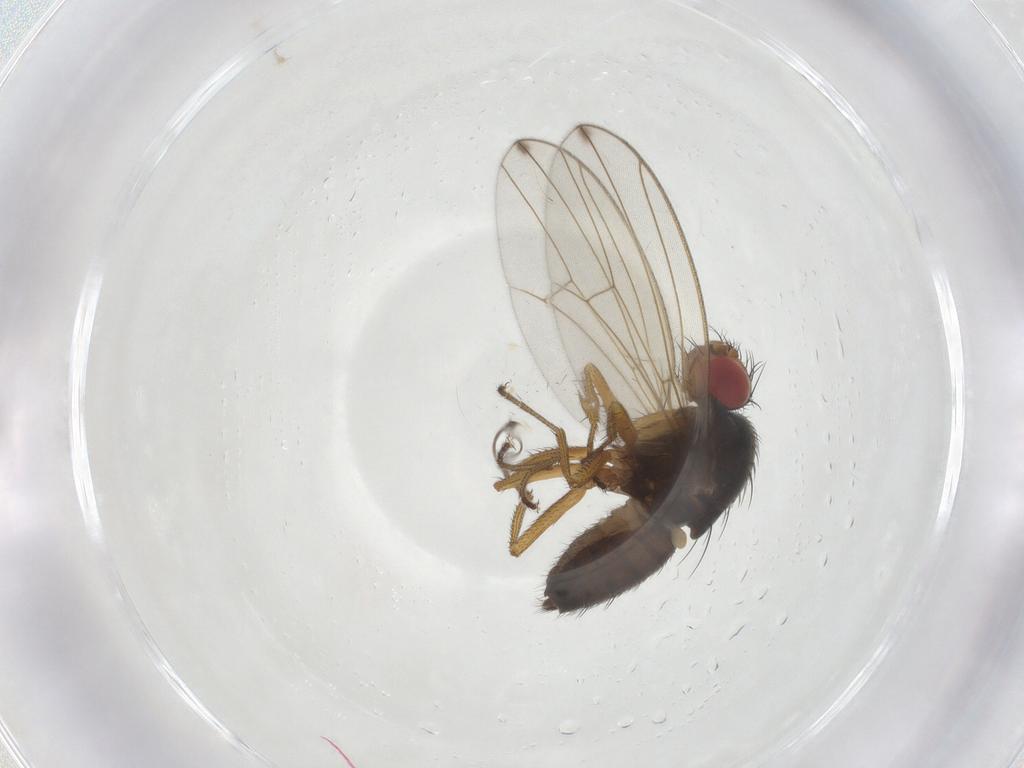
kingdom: Animalia
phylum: Arthropoda
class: Insecta
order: Diptera
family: Drosophilidae
